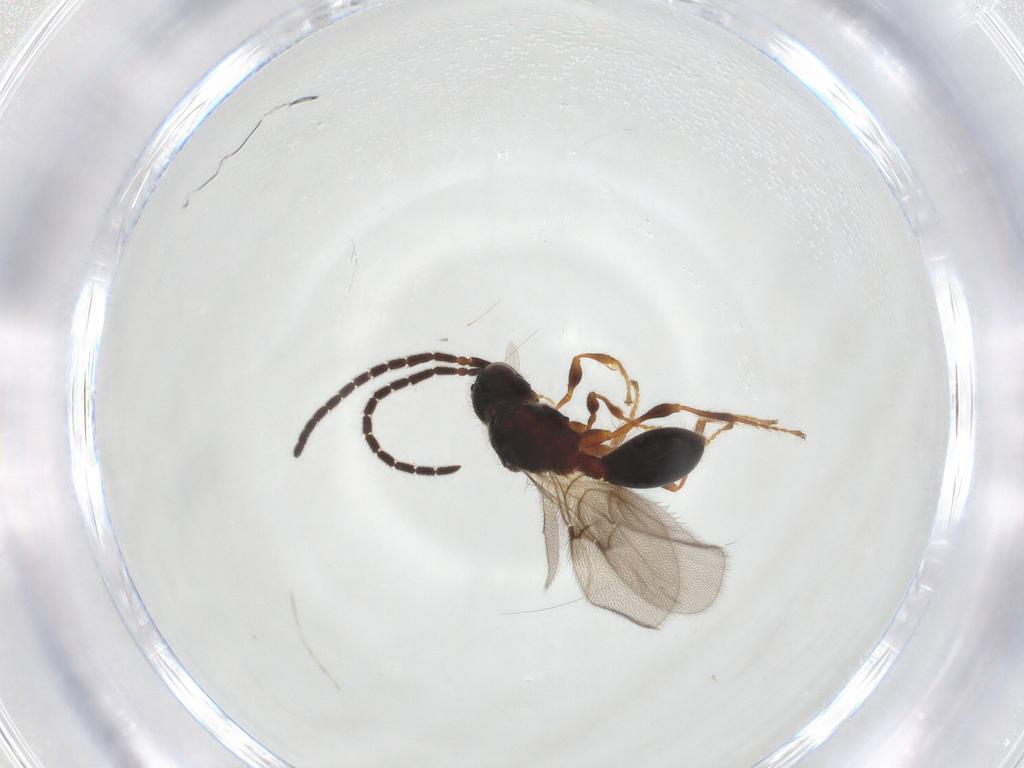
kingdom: Animalia
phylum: Arthropoda
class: Insecta
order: Hymenoptera
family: Diapriidae
